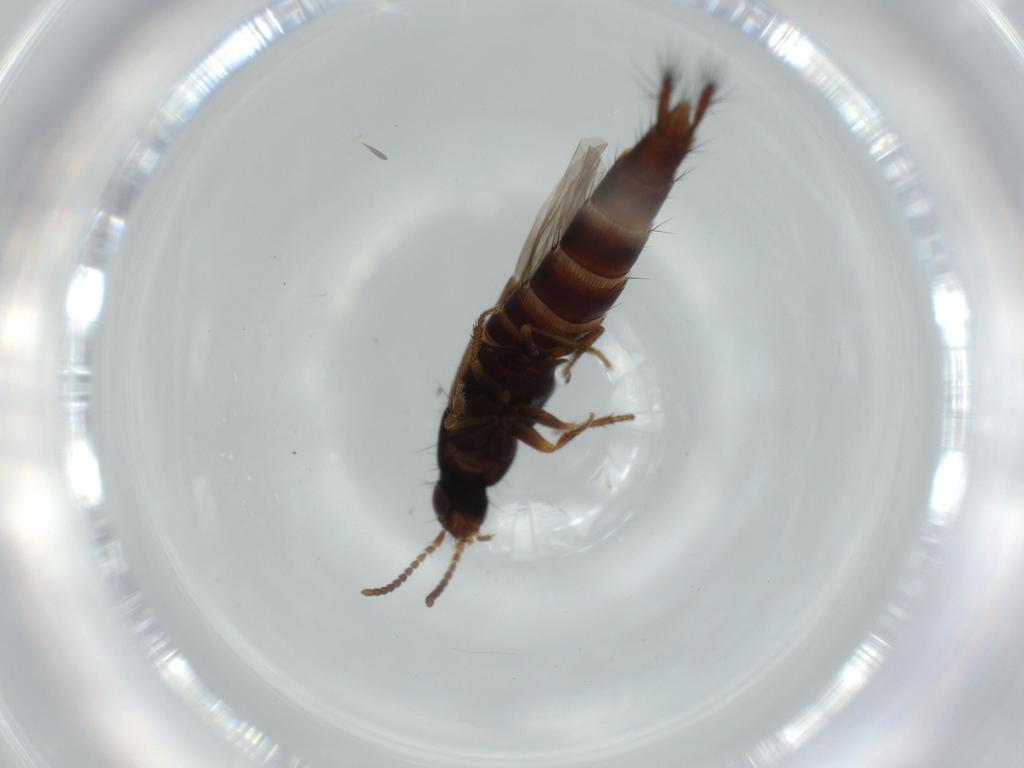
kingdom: Animalia
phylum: Arthropoda
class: Insecta
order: Coleoptera
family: Staphylinidae
